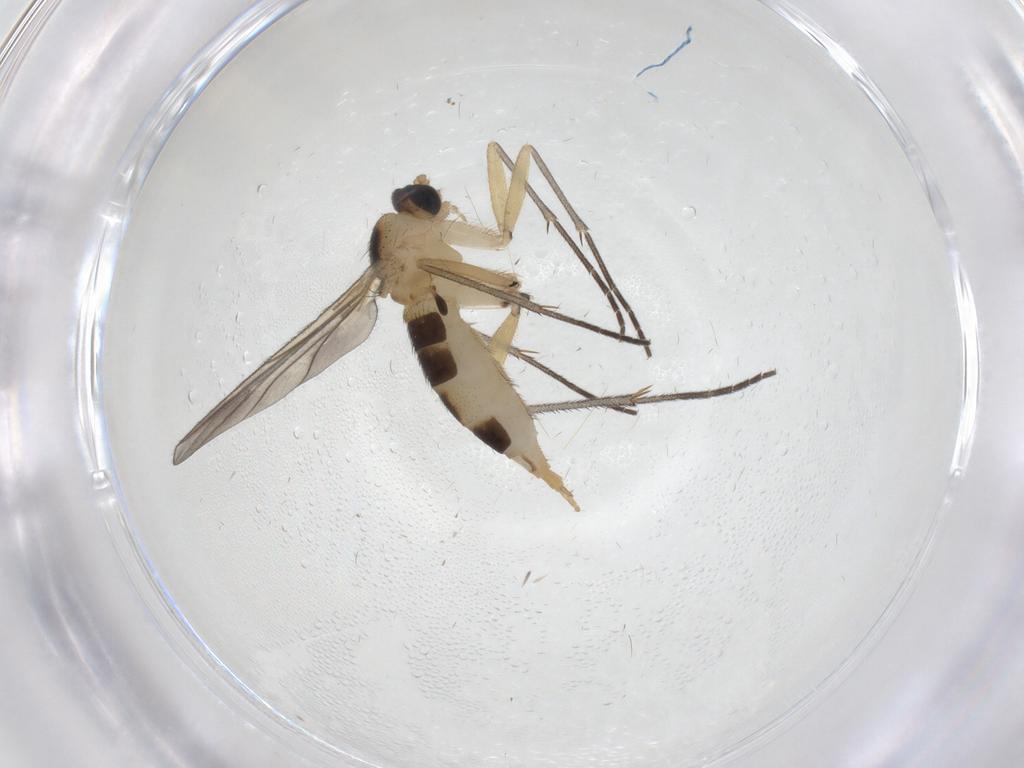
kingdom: Animalia
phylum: Arthropoda
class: Insecta
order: Diptera
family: Sciaridae
